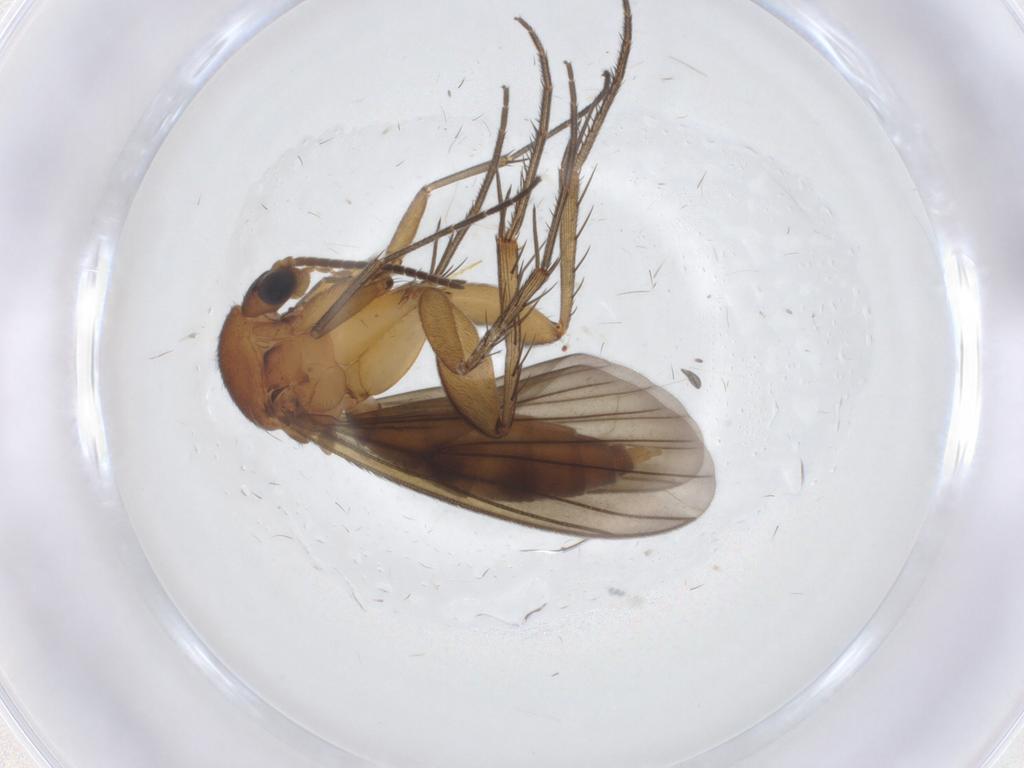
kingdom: Animalia
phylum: Arthropoda
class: Insecta
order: Diptera
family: Mycetophilidae
